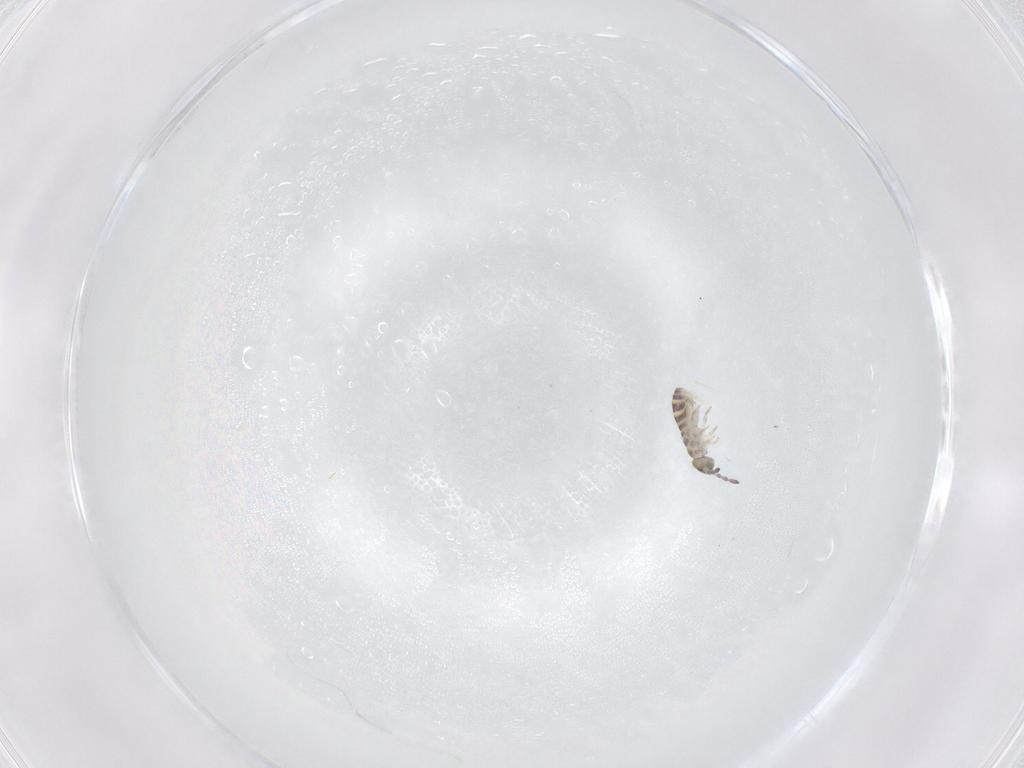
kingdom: Animalia
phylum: Arthropoda
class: Collembola
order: Entomobryomorpha
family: Isotomidae
